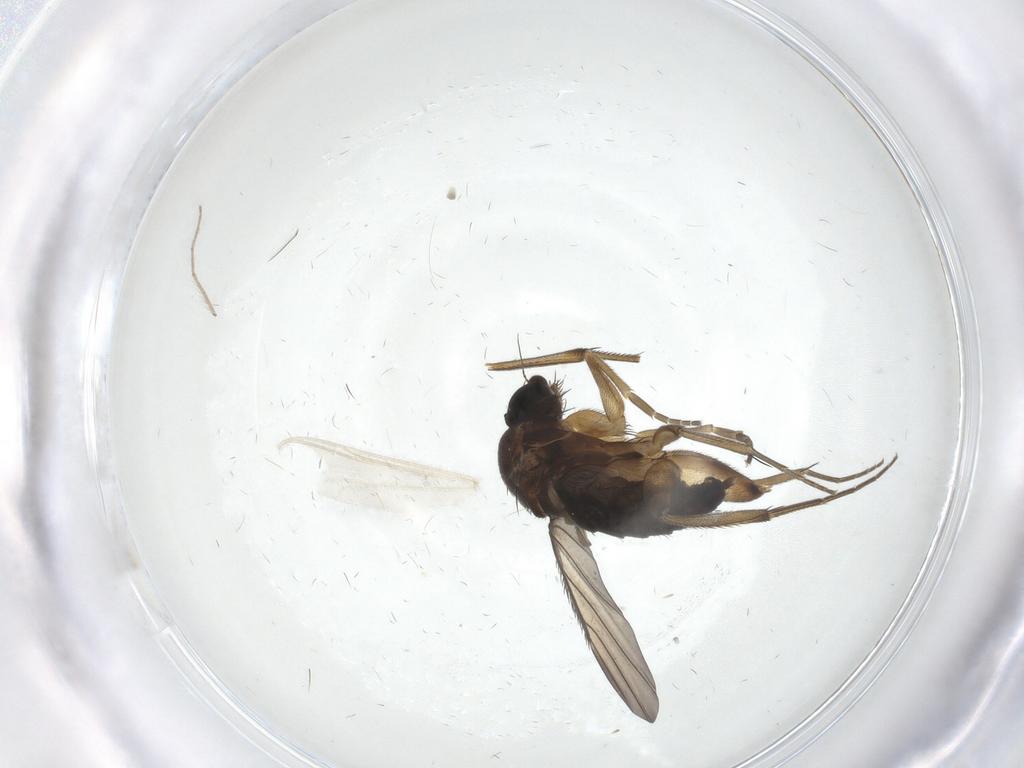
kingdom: Animalia
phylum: Arthropoda
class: Insecta
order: Diptera
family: Phoridae
